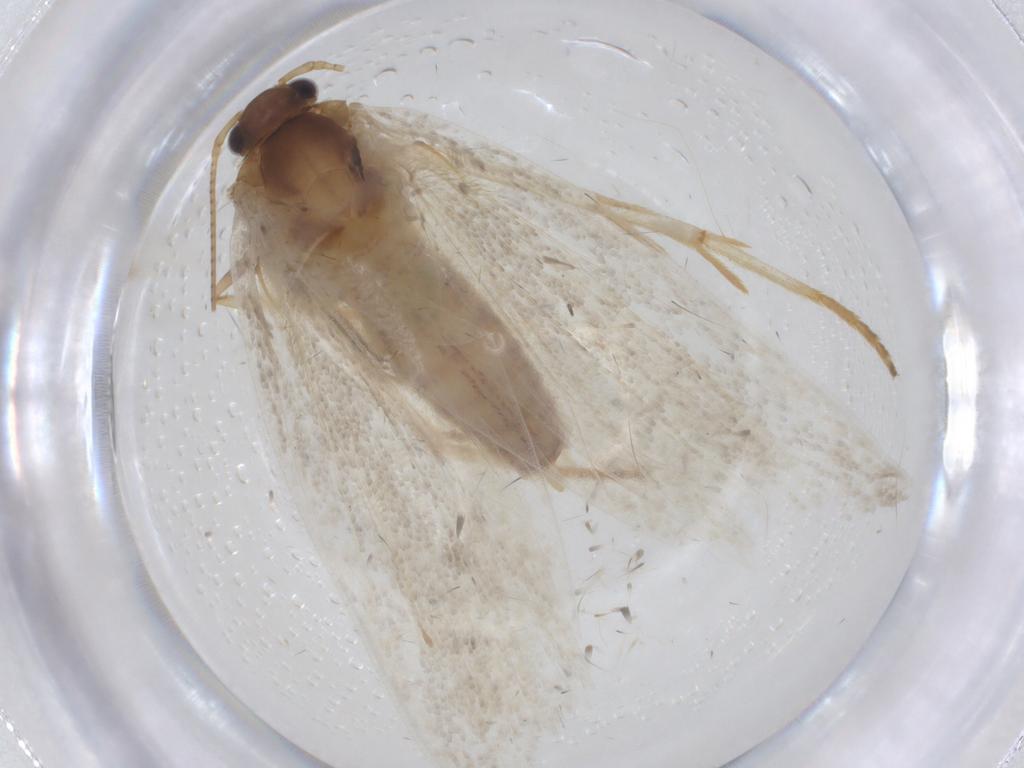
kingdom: Animalia
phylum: Arthropoda
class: Insecta
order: Lepidoptera
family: Depressariidae
